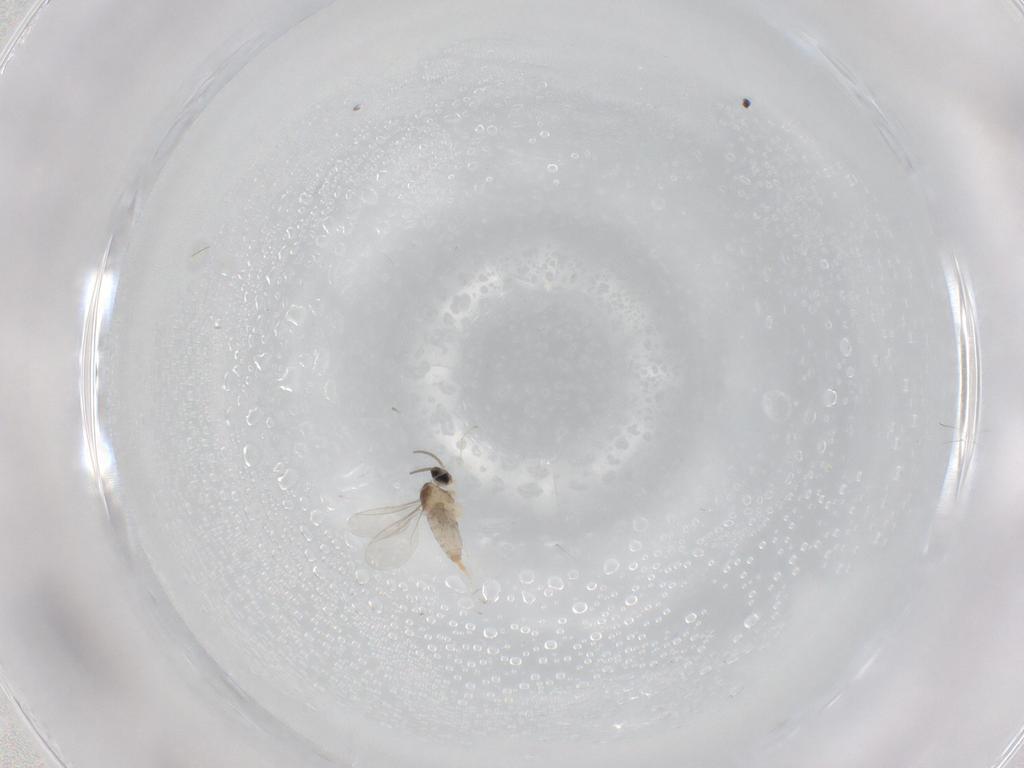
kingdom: Animalia
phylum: Arthropoda
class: Insecta
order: Diptera
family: Cecidomyiidae
